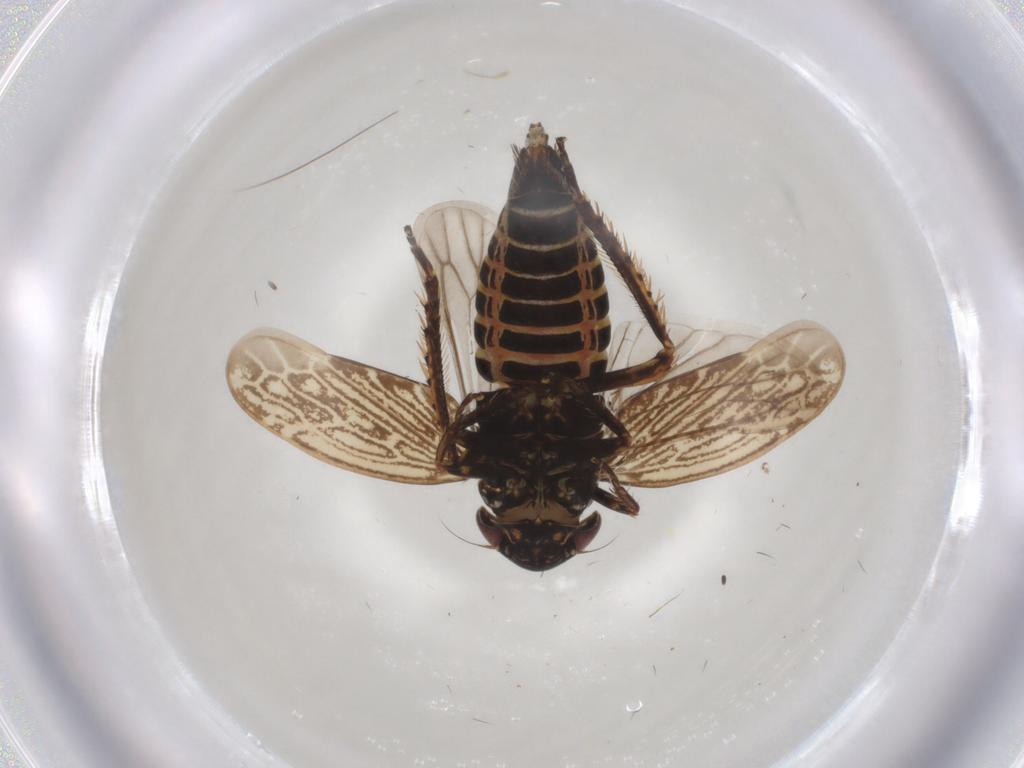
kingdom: Animalia
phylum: Arthropoda
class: Insecta
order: Hemiptera
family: Cicadellidae
